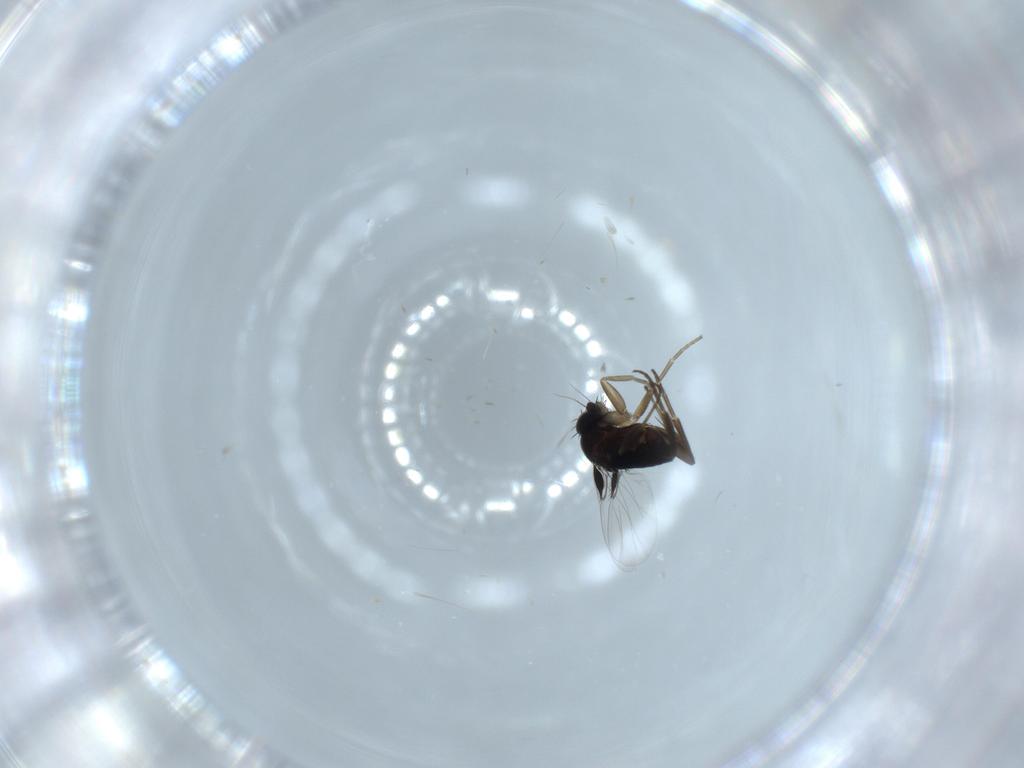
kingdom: Animalia
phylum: Arthropoda
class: Insecta
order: Diptera
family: Phoridae
